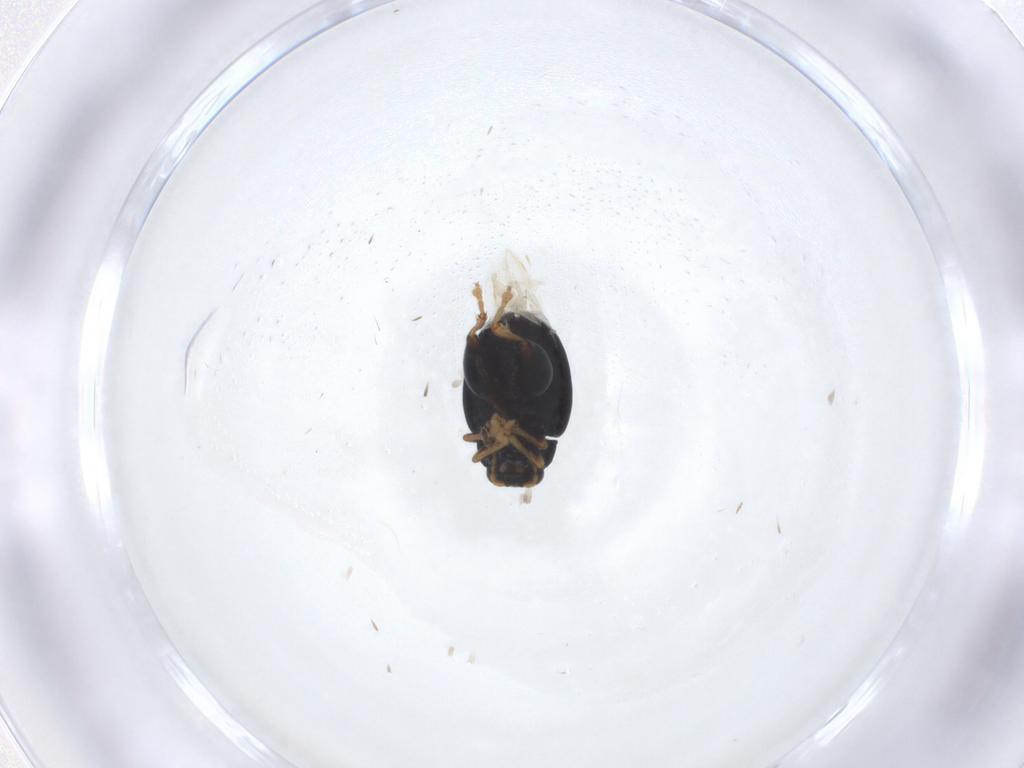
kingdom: Animalia
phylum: Arthropoda
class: Insecta
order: Coleoptera
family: Chrysomelidae
